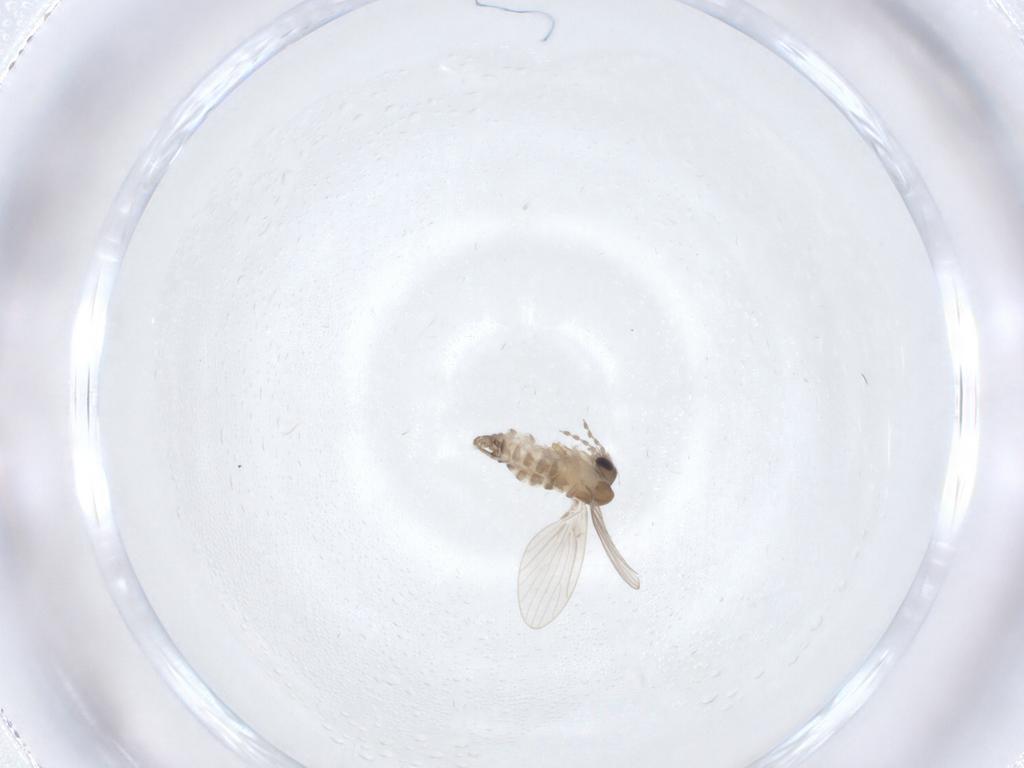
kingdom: Animalia
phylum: Arthropoda
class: Insecta
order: Diptera
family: Psychodidae
